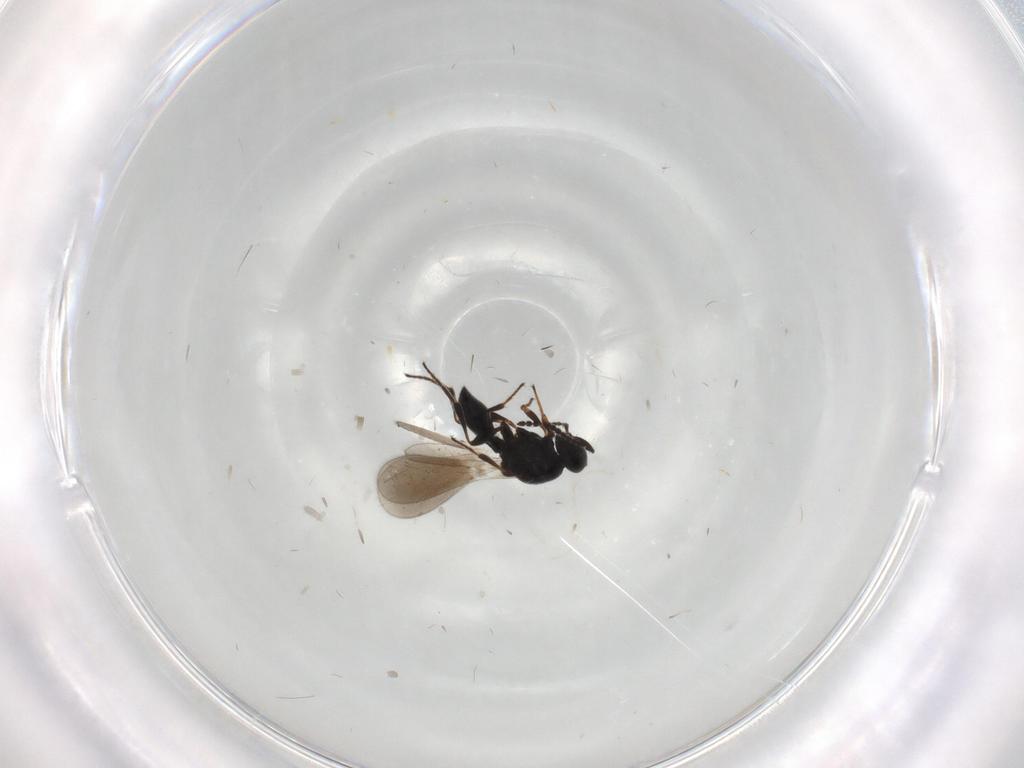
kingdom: Animalia
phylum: Arthropoda
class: Insecta
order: Hymenoptera
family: Platygastridae
